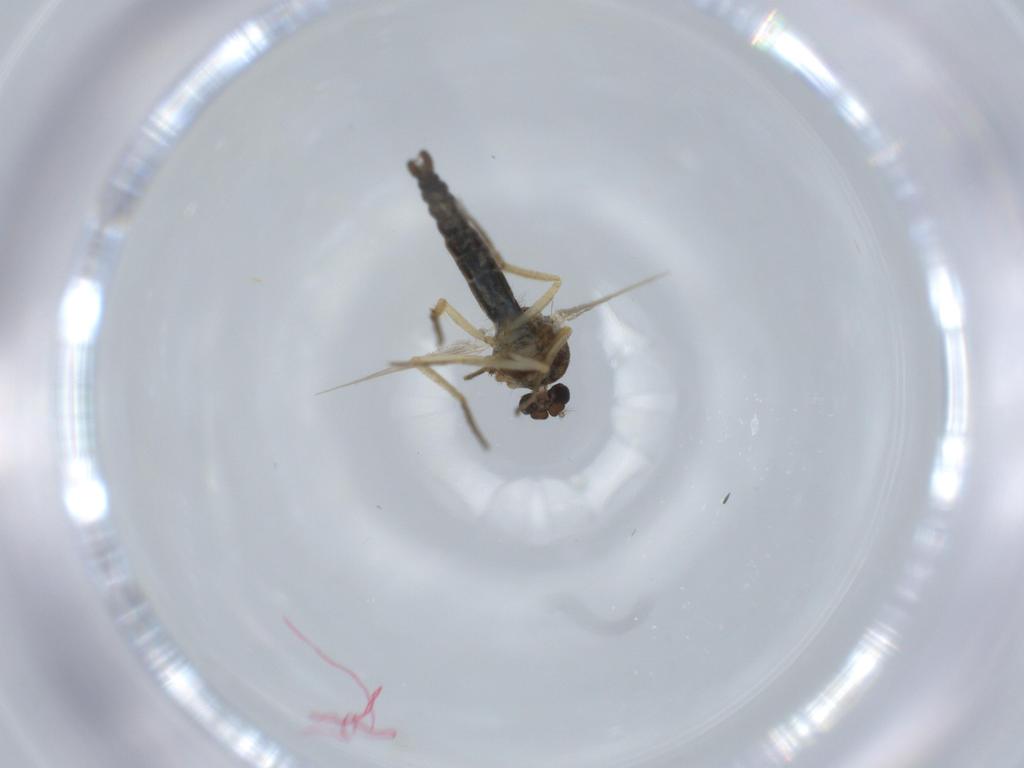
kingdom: Animalia
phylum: Arthropoda
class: Insecta
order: Diptera
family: Ceratopogonidae
